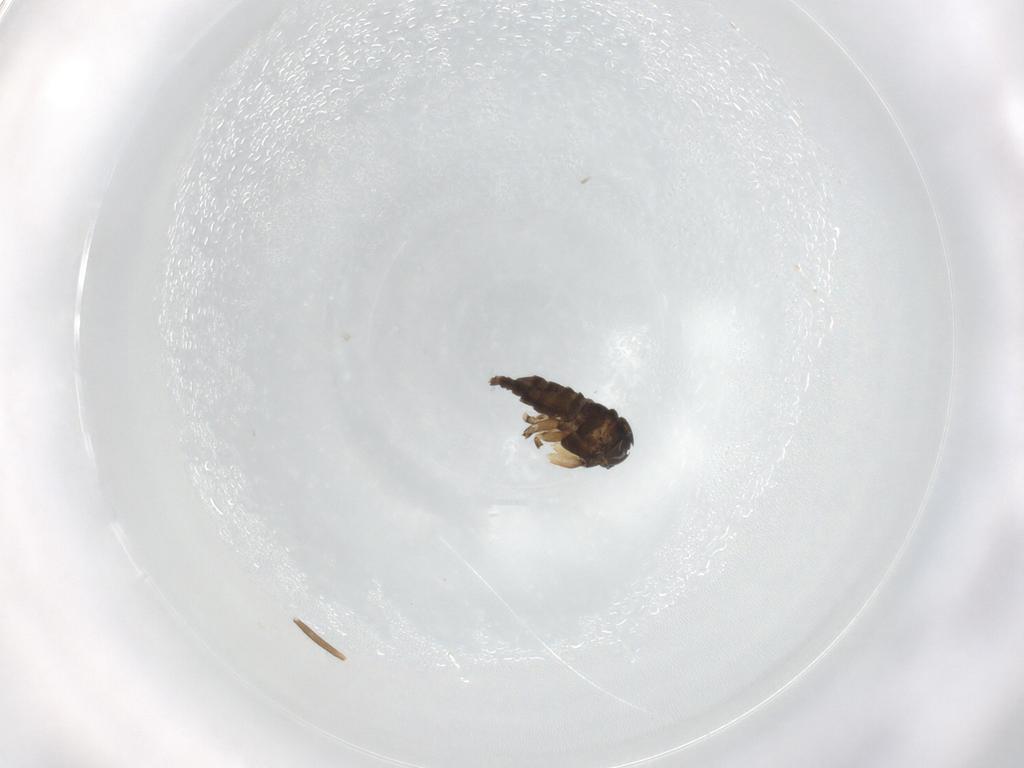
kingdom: Animalia
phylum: Arthropoda
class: Insecta
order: Diptera
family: Sciaridae
